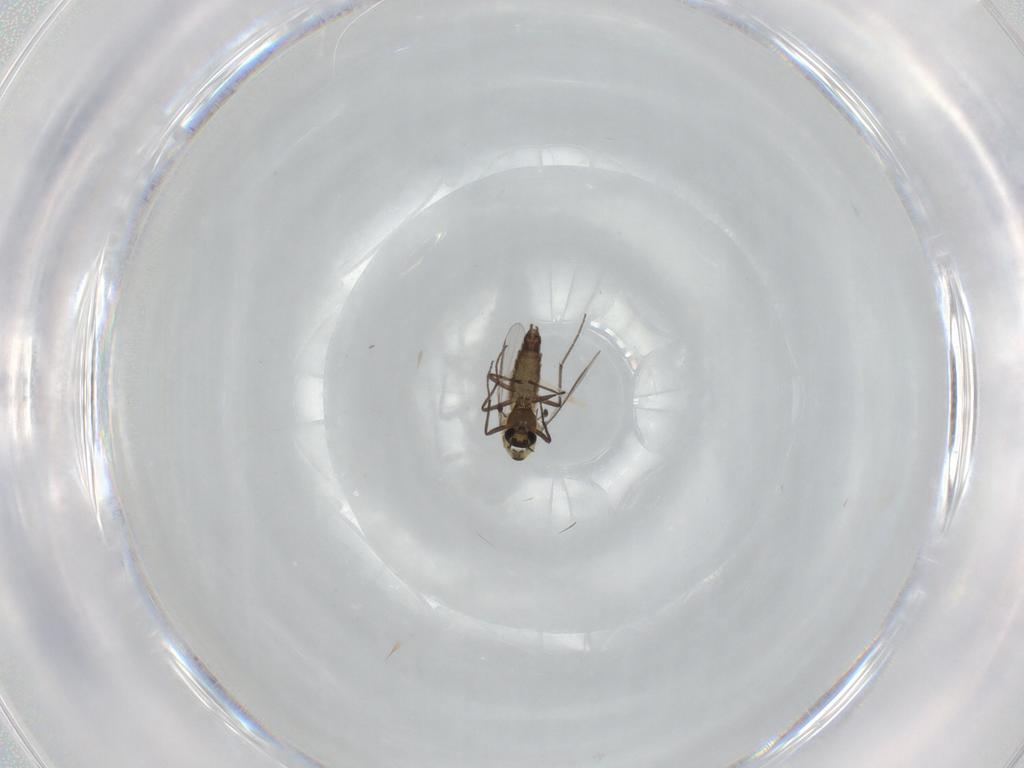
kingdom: Animalia
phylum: Arthropoda
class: Insecta
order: Diptera
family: Chironomidae
